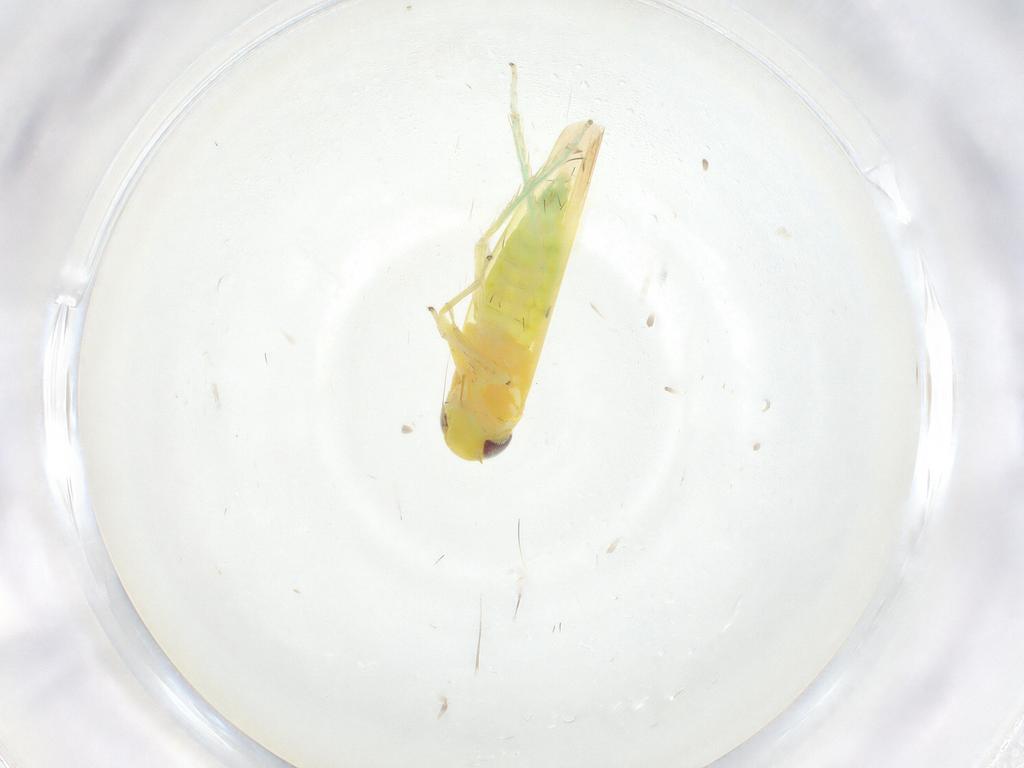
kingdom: Animalia
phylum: Arthropoda
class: Insecta
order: Hemiptera
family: Cicadellidae
